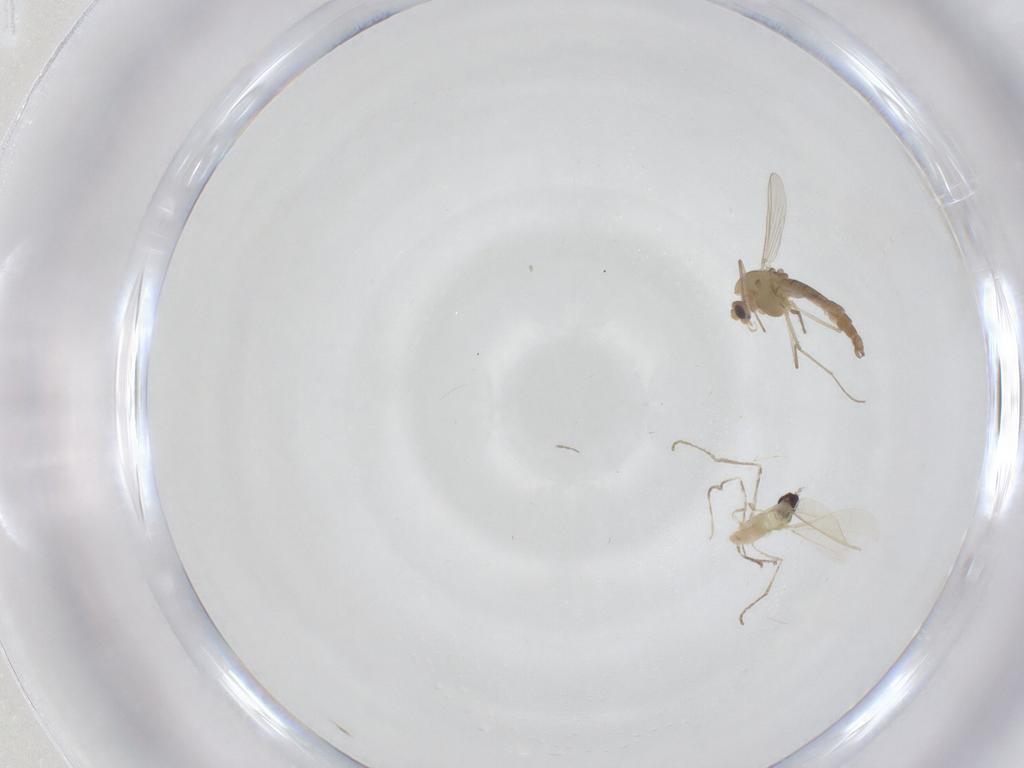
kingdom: Animalia
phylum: Arthropoda
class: Insecta
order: Diptera
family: Chironomidae
